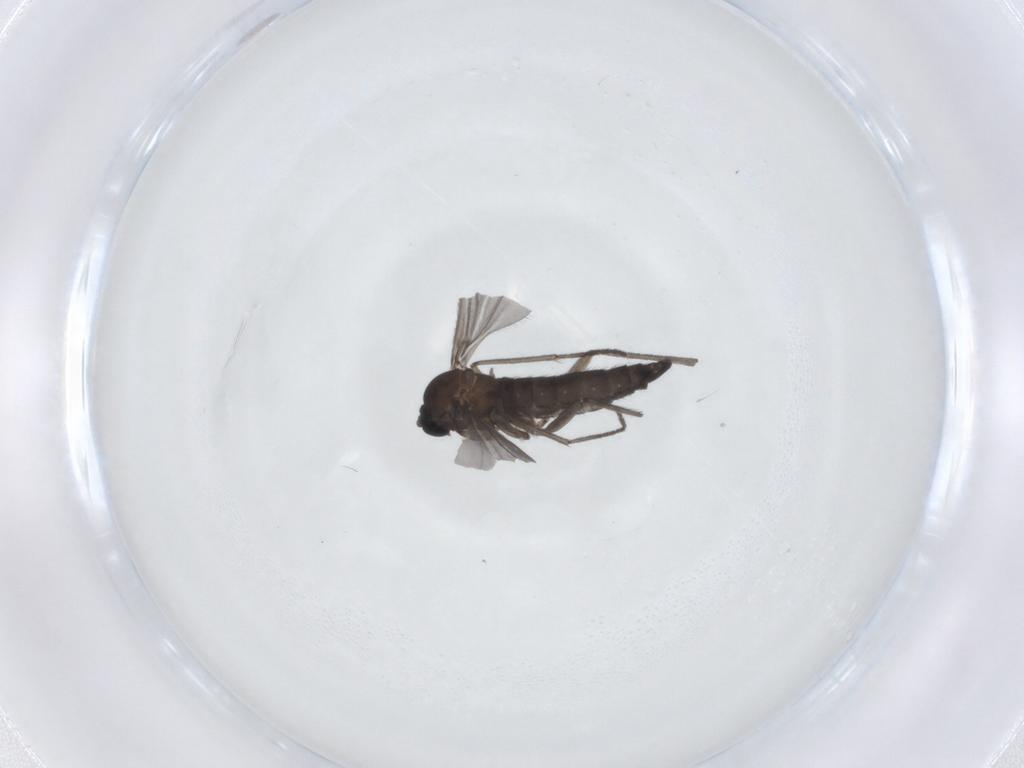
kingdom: Animalia
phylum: Arthropoda
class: Insecta
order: Diptera
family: Sciaridae
